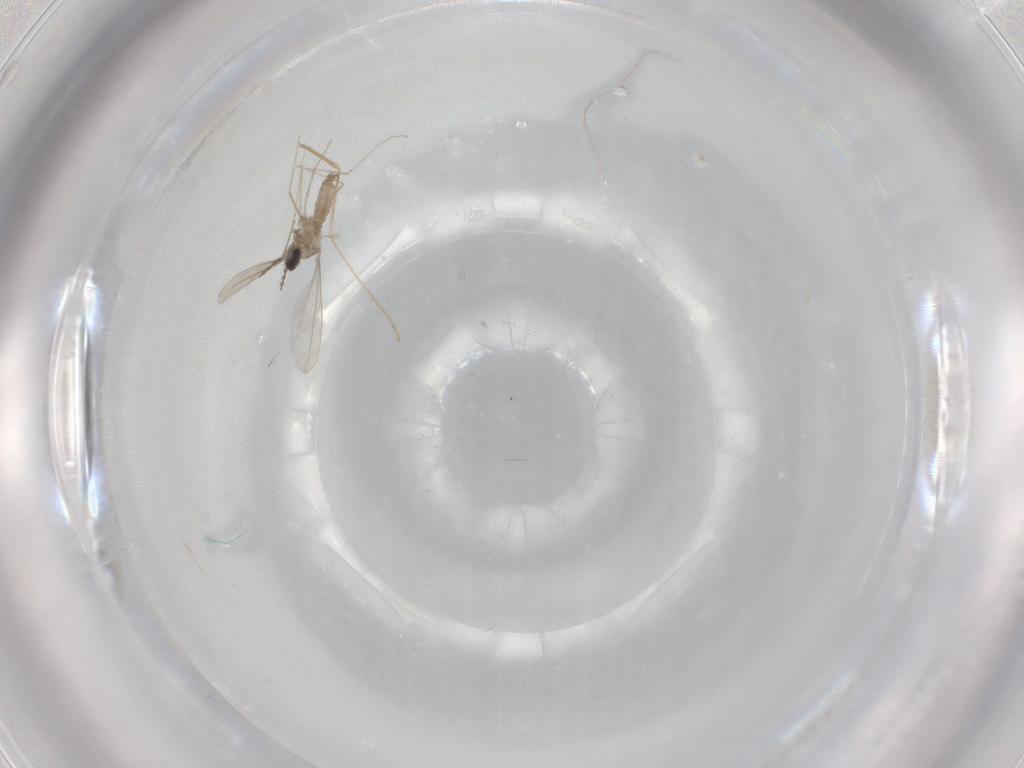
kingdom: Animalia
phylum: Arthropoda
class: Insecta
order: Diptera
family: Cecidomyiidae
